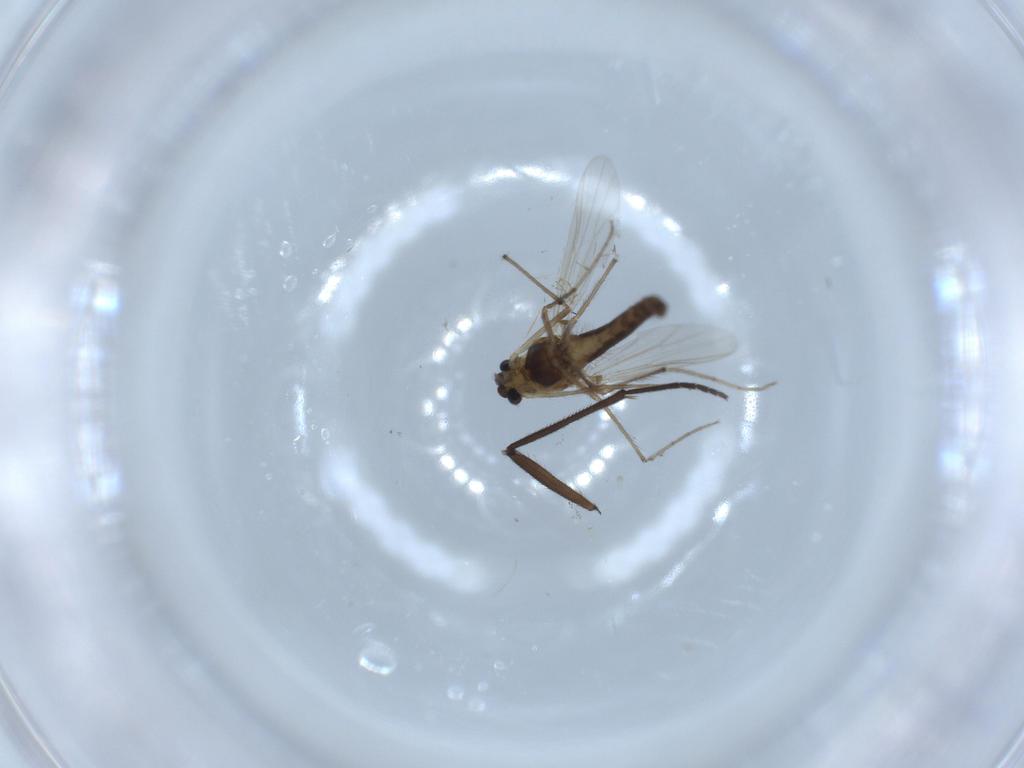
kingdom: Animalia
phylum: Arthropoda
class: Insecta
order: Diptera
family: Chironomidae
